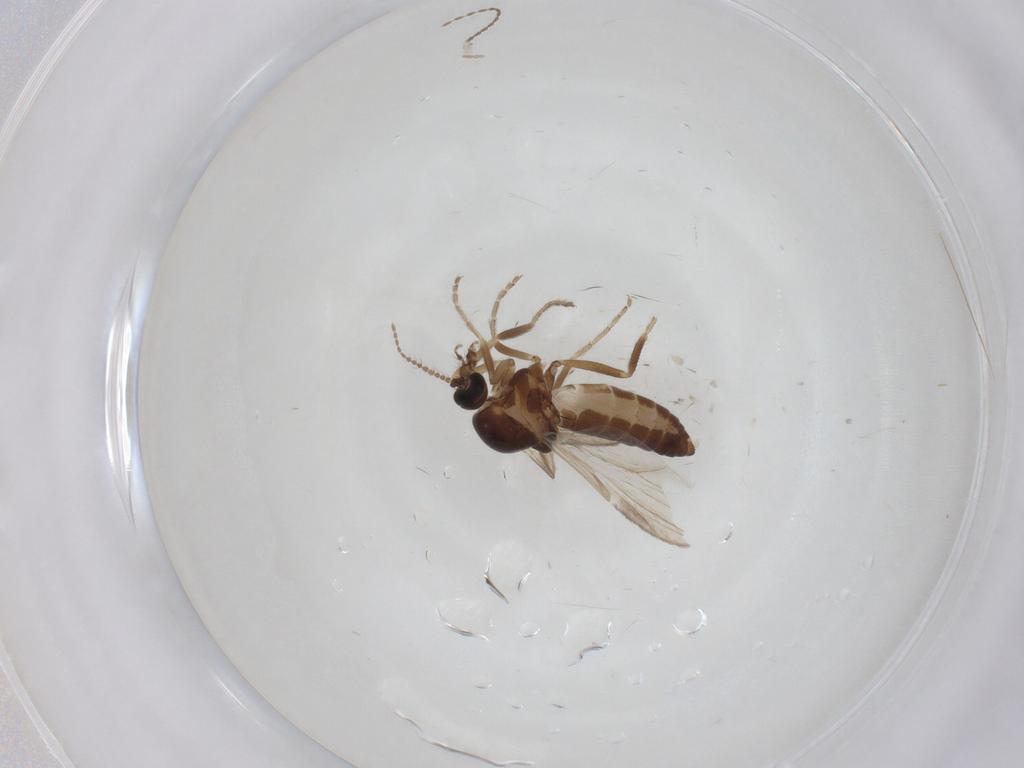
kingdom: Animalia
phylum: Arthropoda
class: Insecta
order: Diptera
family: Ceratopogonidae
